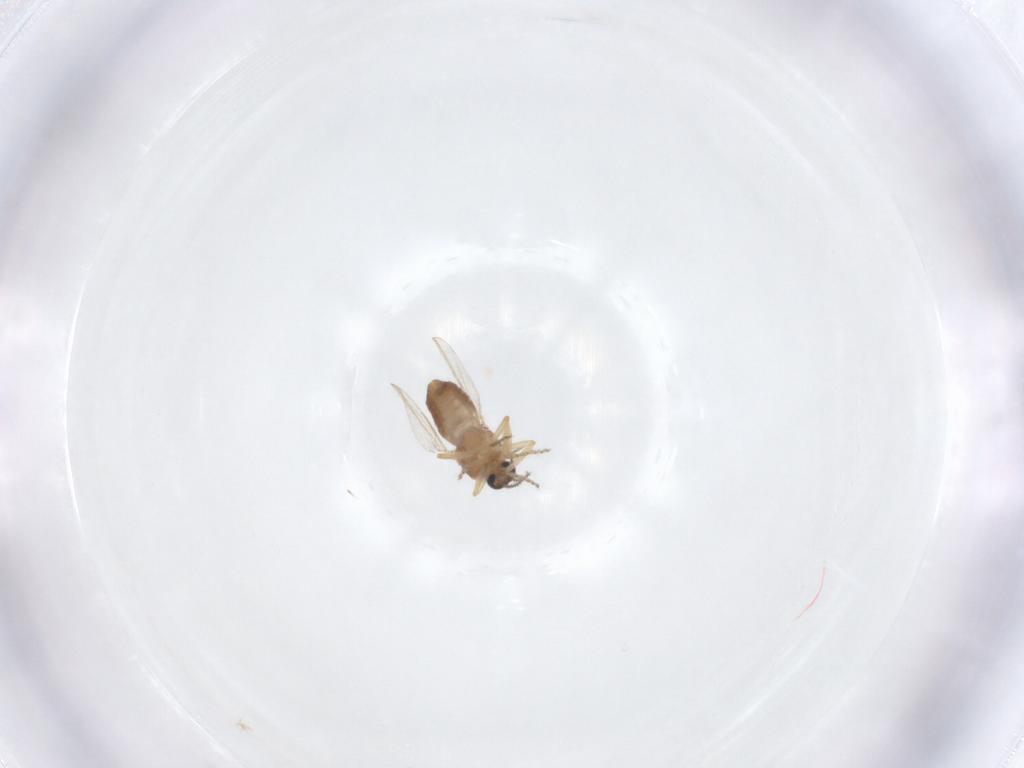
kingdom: Animalia
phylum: Arthropoda
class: Insecta
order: Diptera
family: Ceratopogonidae
